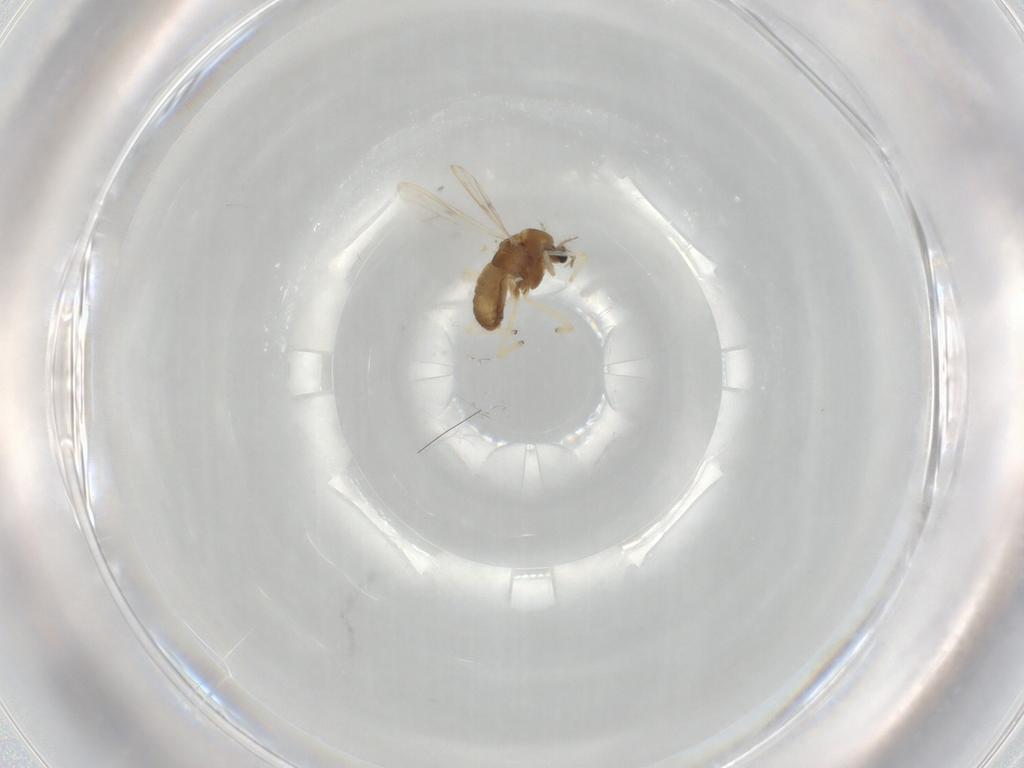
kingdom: Animalia
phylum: Arthropoda
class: Insecta
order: Diptera
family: Chironomidae
